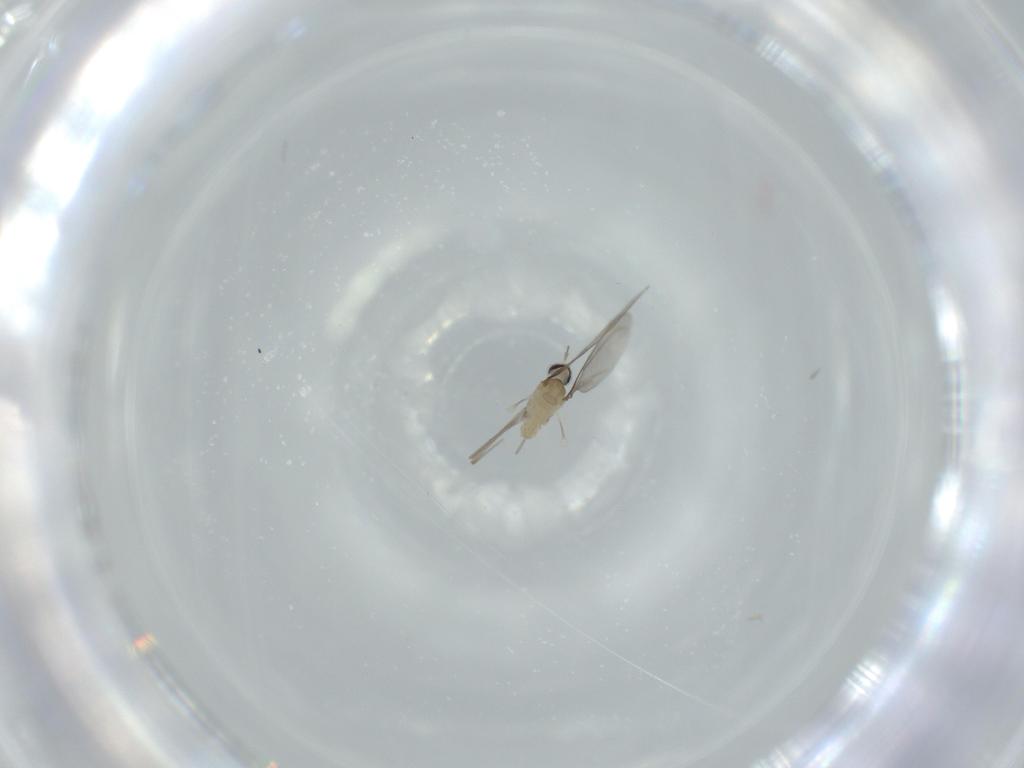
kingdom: Animalia
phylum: Arthropoda
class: Insecta
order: Diptera
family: Cecidomyiidae
